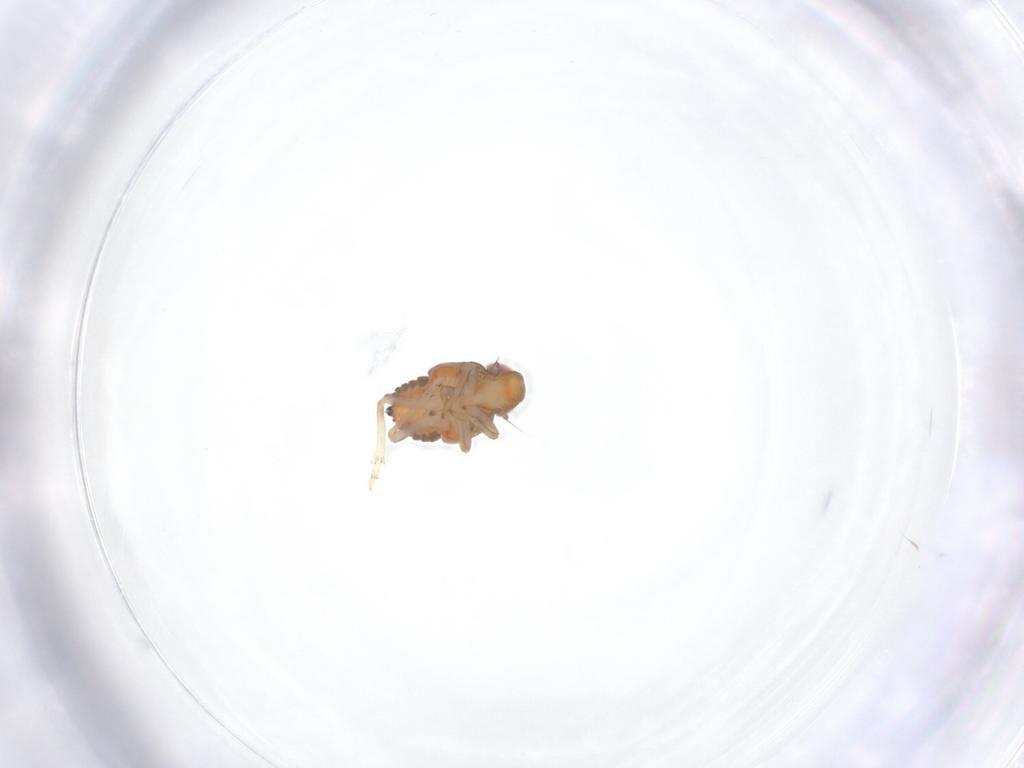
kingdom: Animalia
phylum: Arthropoda
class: Insecta
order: Hemiptera
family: Issidae
